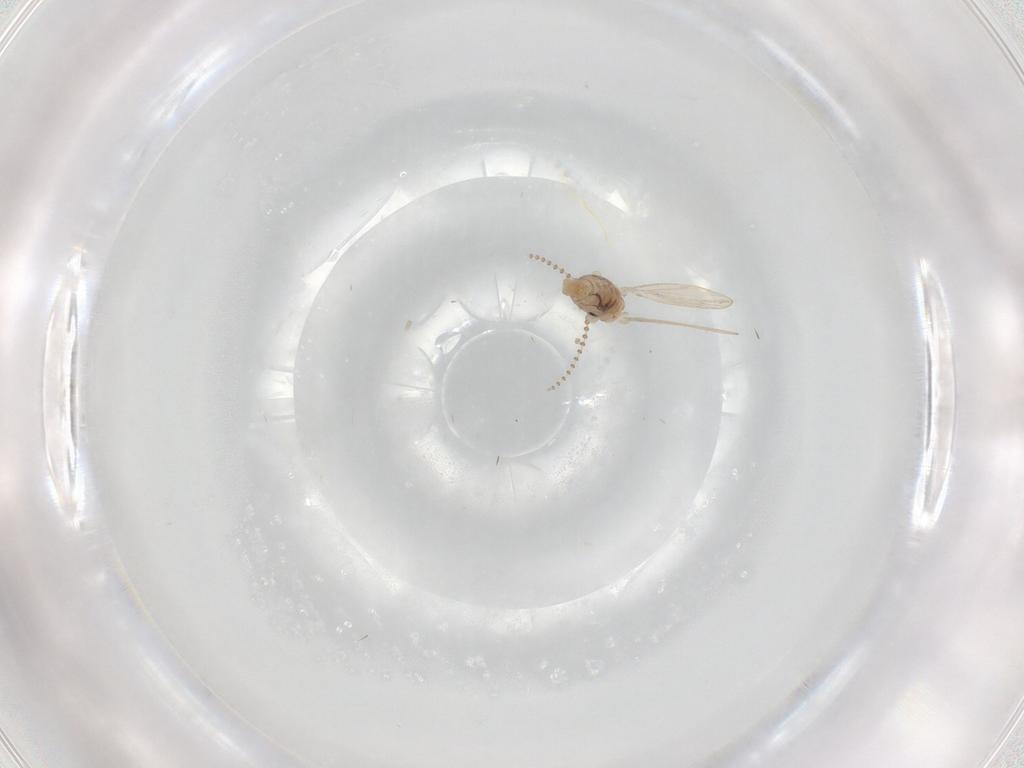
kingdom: Animalia
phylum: Arthropoda
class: Insecta
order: Diptera
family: Psychodidae
